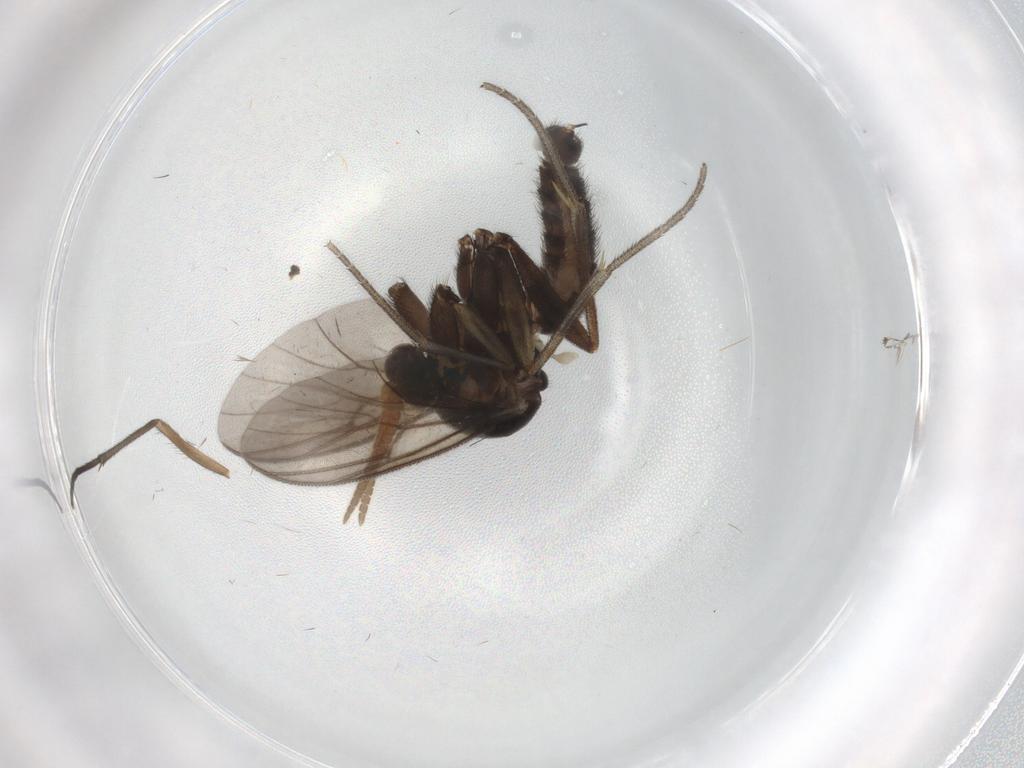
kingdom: Animalia
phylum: Arthropoda
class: Insecta
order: Diptera
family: Mycetophilidae
